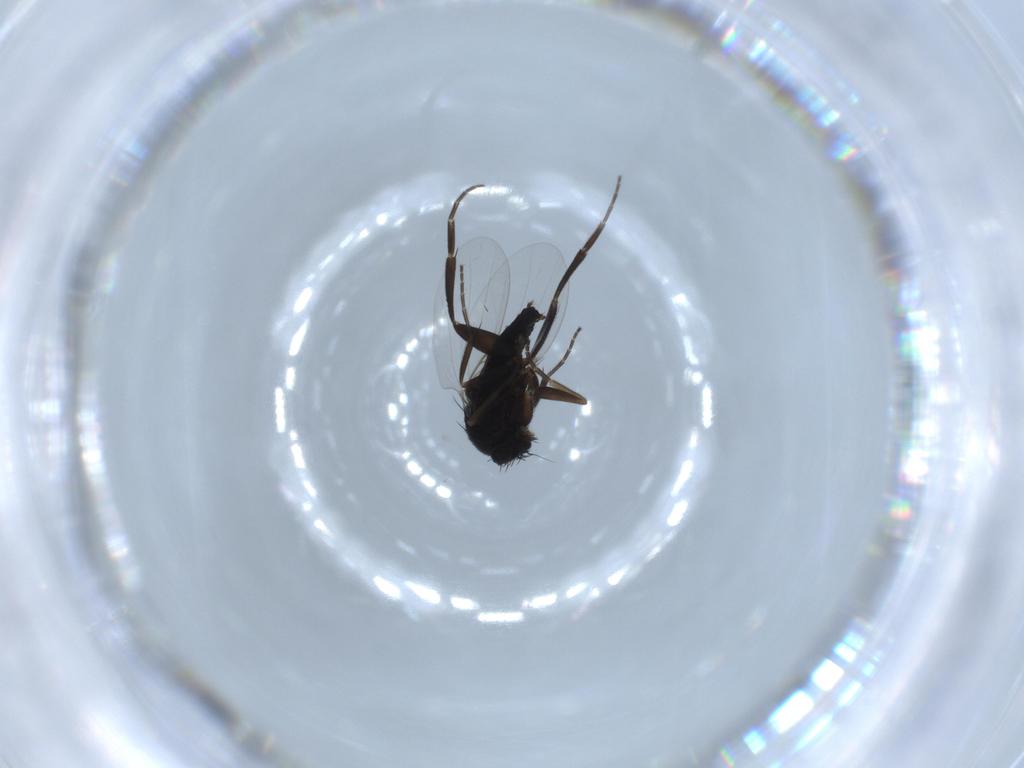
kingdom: Animalia
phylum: Arthropoda
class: Insecta
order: Diptera
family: Phoridae
